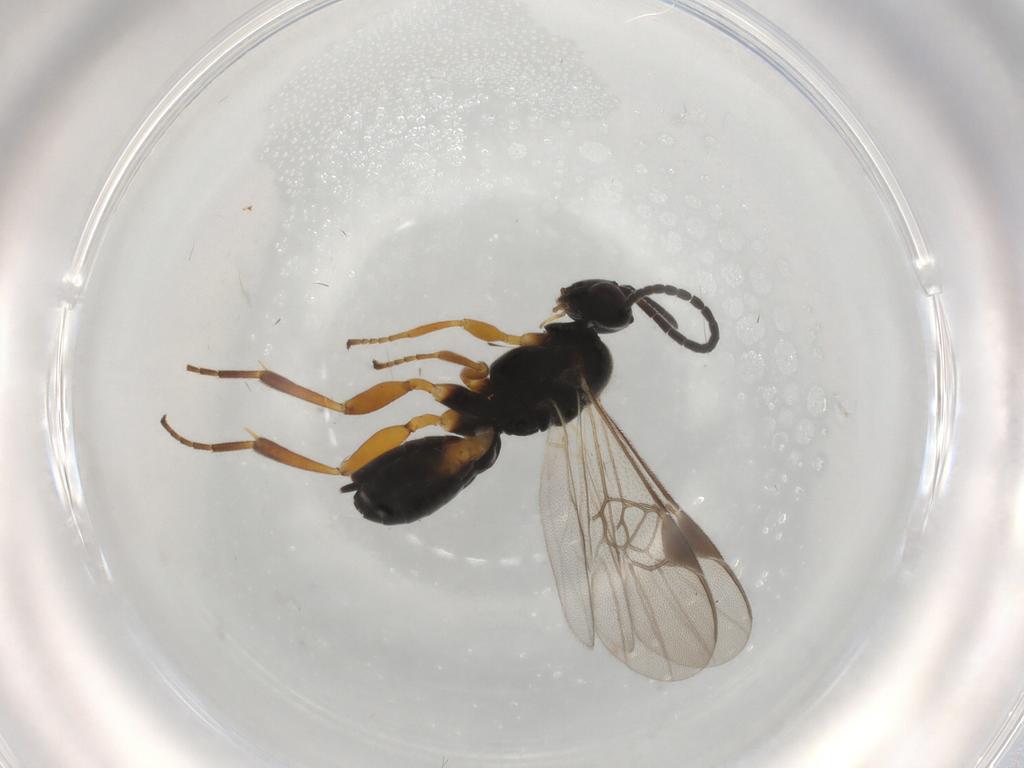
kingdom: Animalia
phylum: Arthropoda
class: Insecta
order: Hymenoptera
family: Braconidae
